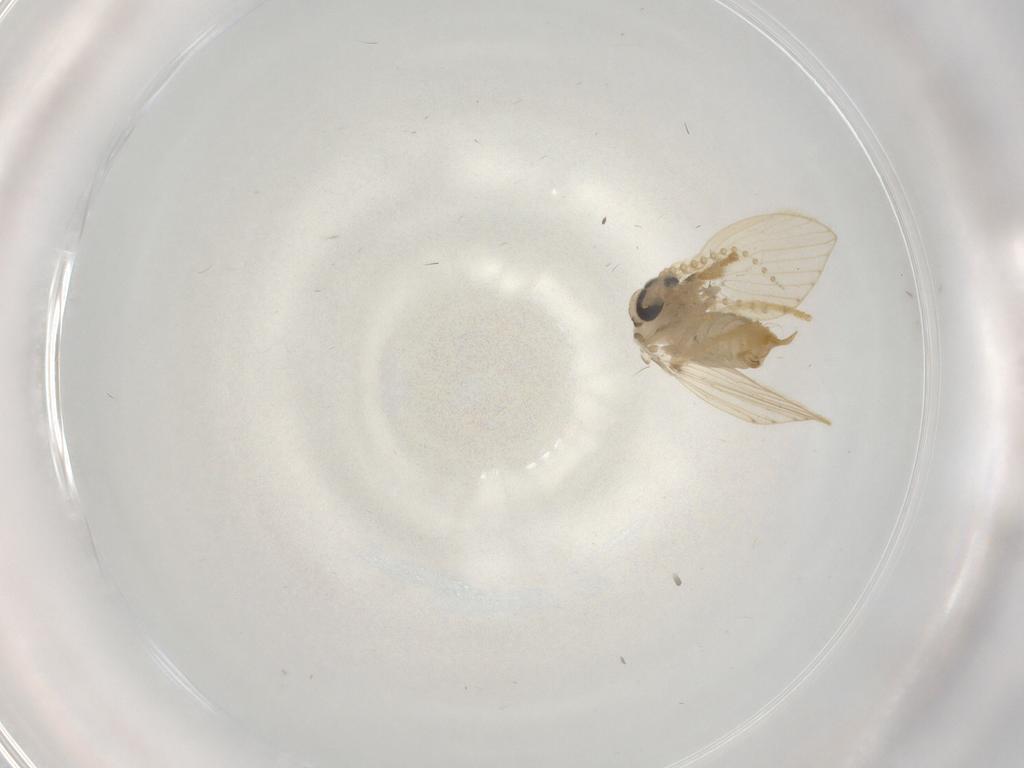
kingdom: Animalia
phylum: Arthropoda
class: Insecta
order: Diptera
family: Psychodidae
